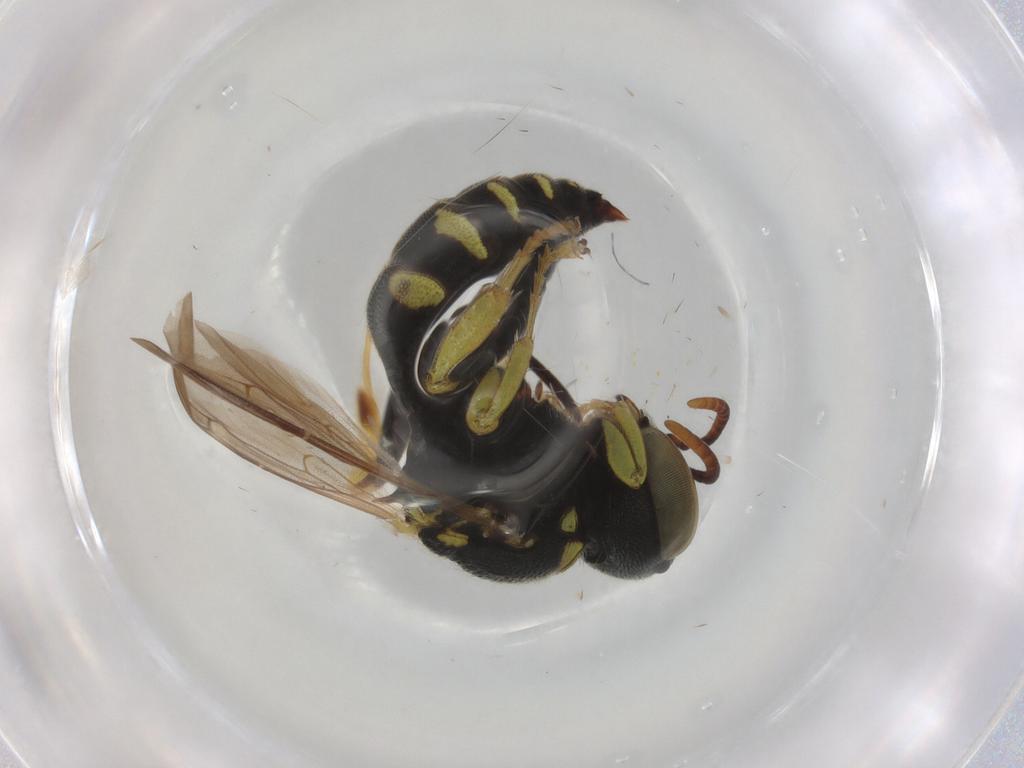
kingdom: Animalia
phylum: Arthropoda
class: Insecta
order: Hymenoptera
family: Braconidae
